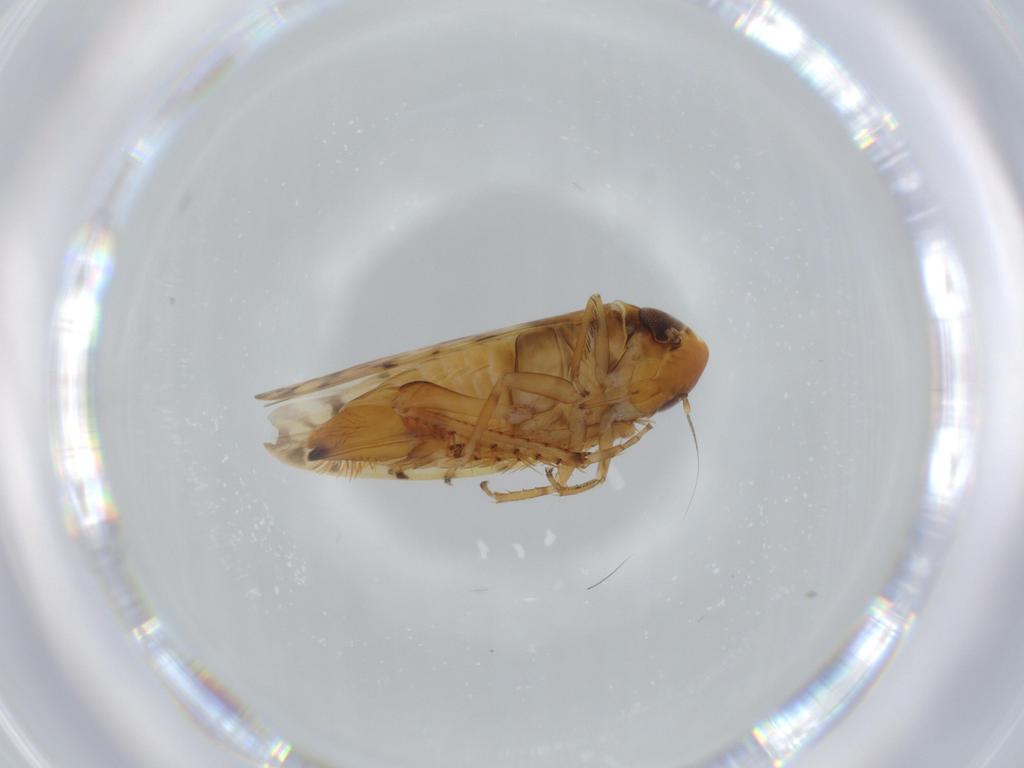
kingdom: Animalia
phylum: Arthropoda
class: Insecta
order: Hemiptera
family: Cicadellidae
